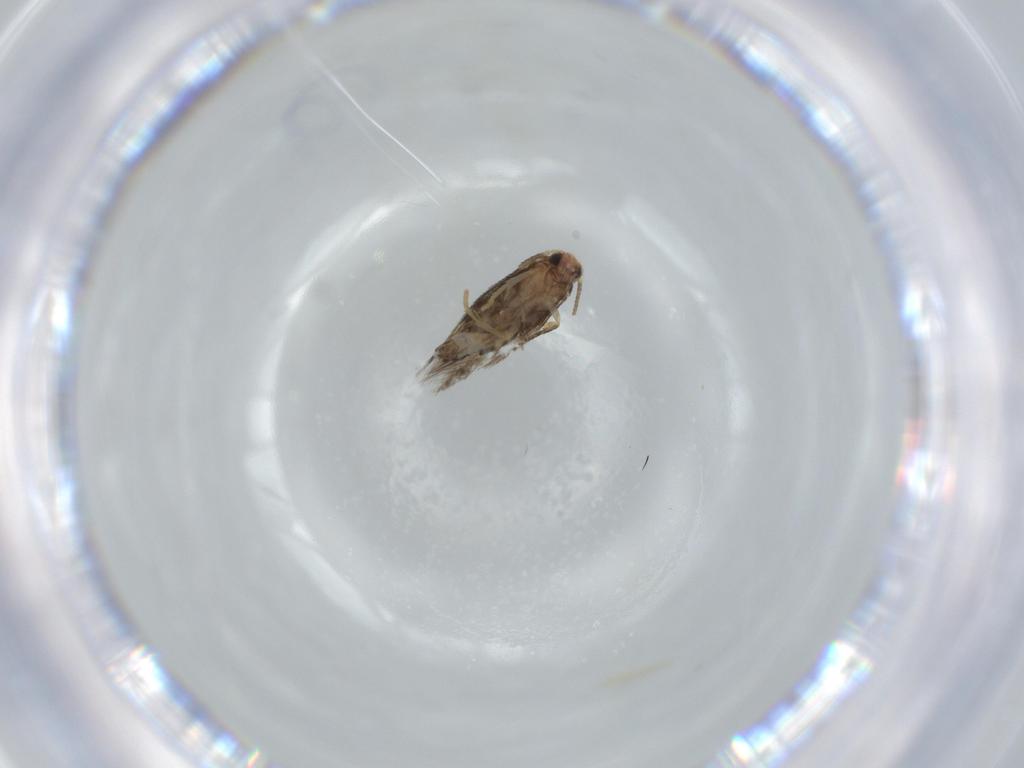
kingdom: Animalia
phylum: Arthropoda
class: Insecta
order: Lepidoptera
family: Nepticulidae
